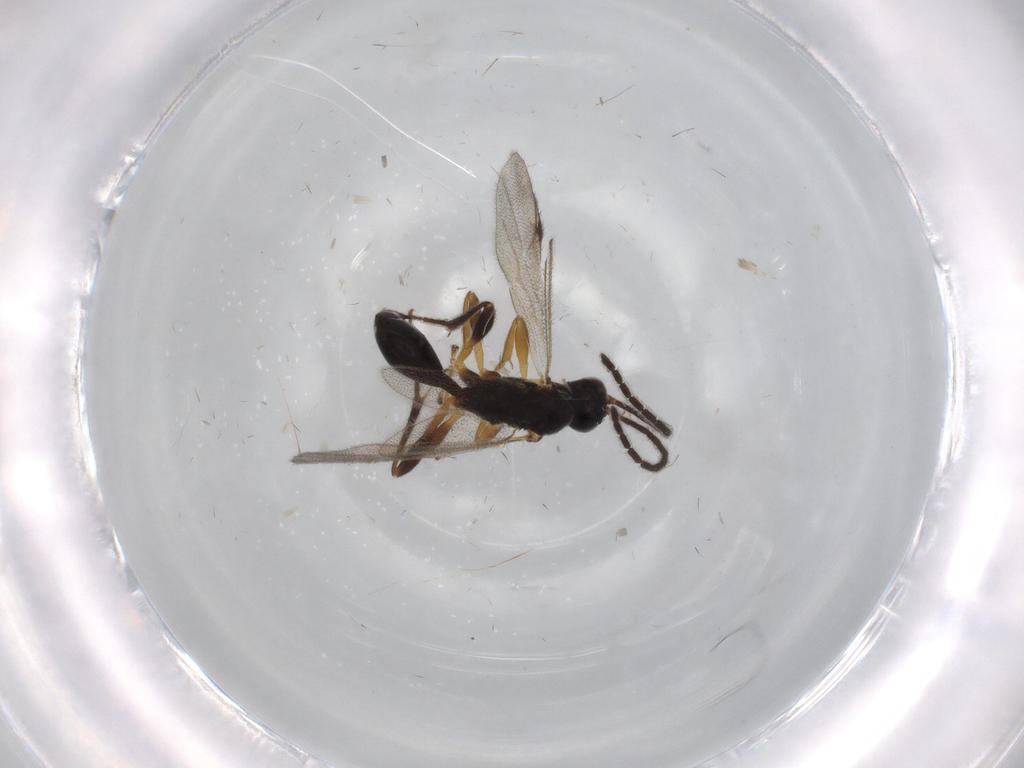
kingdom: Animalia
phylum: Arthropoda
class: Insecta
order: Hymenoptera
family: Proctotrupidae
